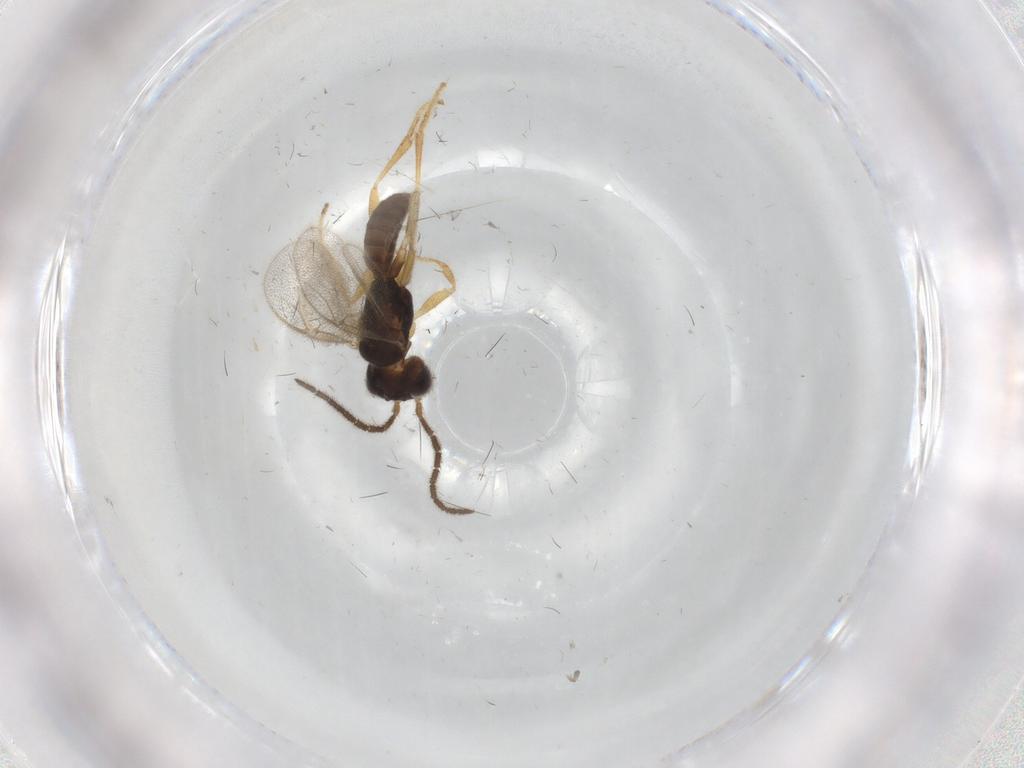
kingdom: Animalia
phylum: Arthropoda
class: Insecta
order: Hymenoptera
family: Dryinidae
